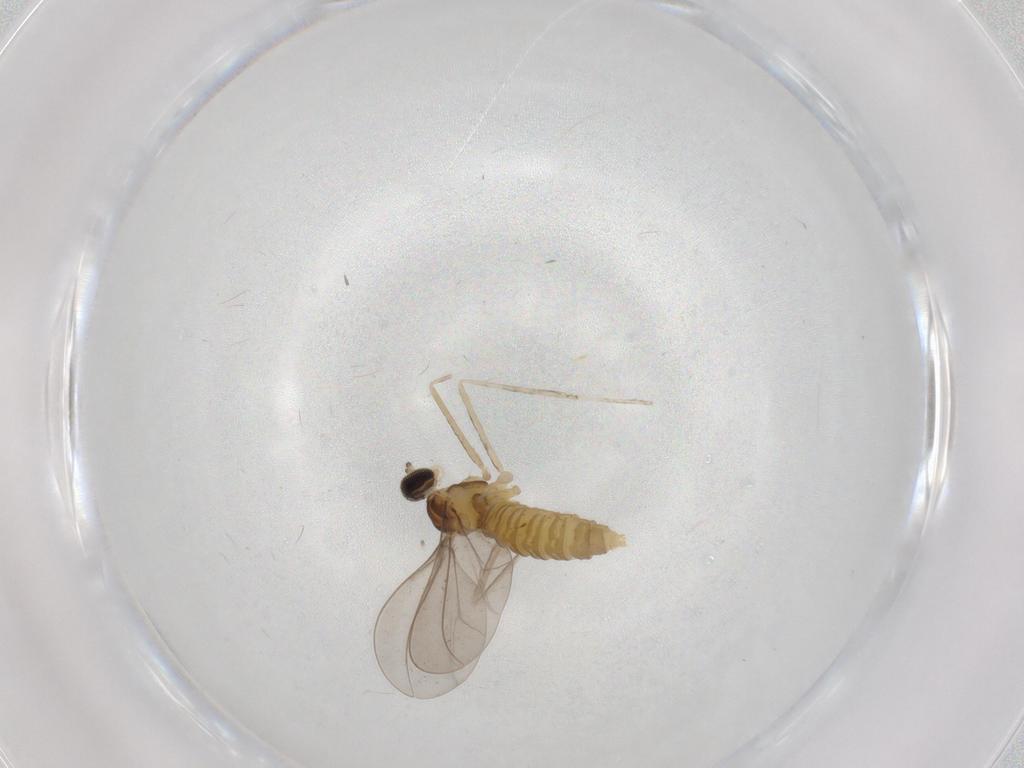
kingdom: Animalia
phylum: Arthropoda
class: Insecta
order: Diptera
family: Cecidomyiidae
